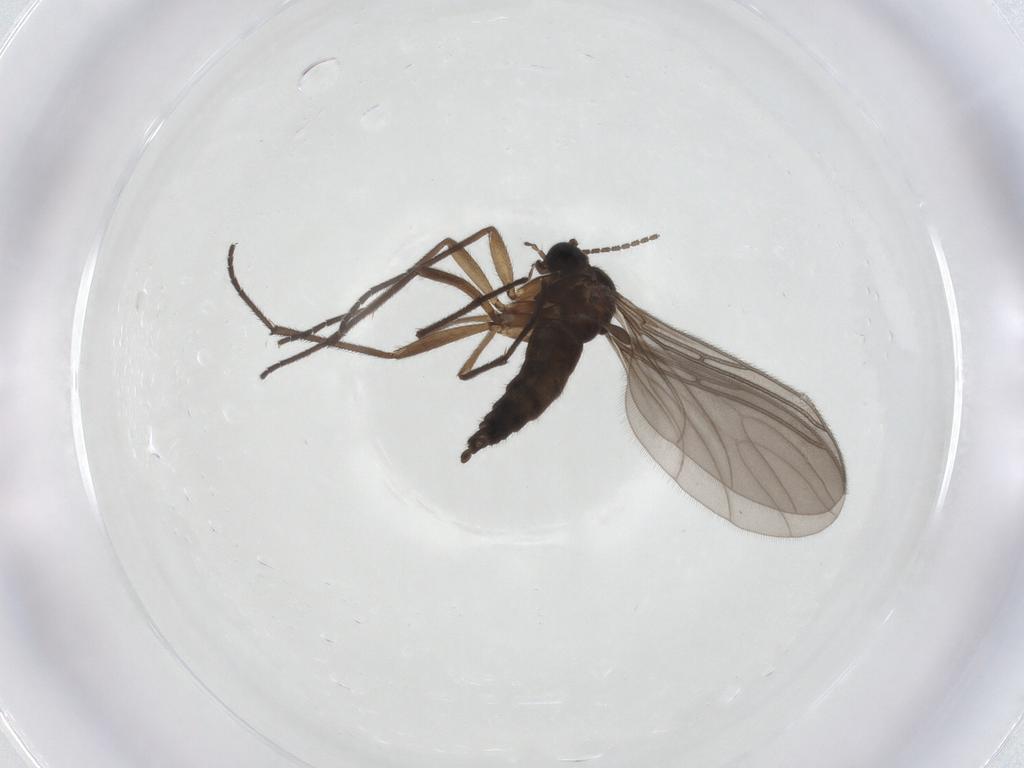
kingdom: Animalia
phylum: Arthropoda
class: Insecta
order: Diptera
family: Sciaridae
